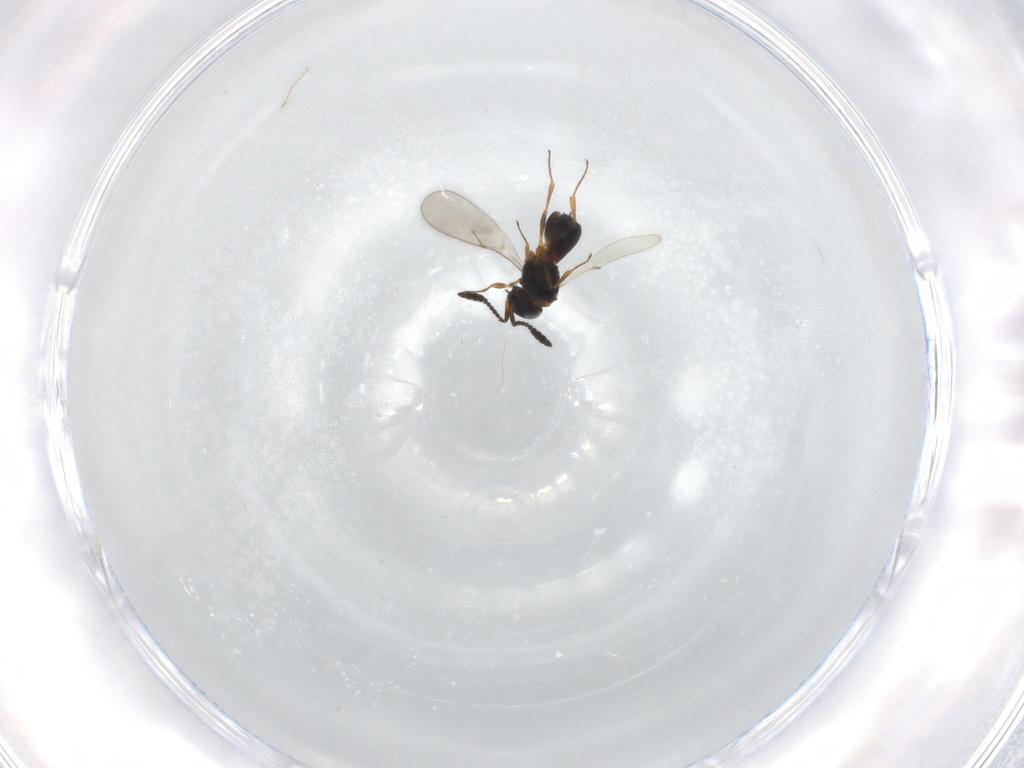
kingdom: Animalia
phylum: Arthropoda
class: Insecta
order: Hymenoptera
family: Scelionidae
